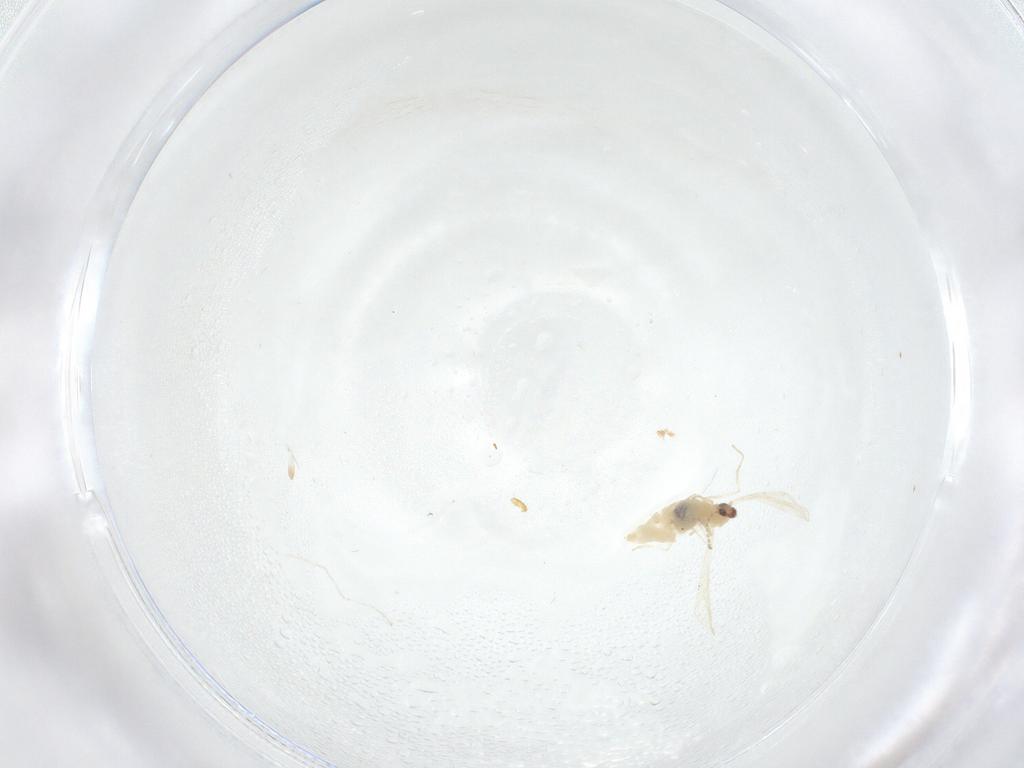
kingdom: Animalia
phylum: Arthropoda
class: Insecta
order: Diptera
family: Cecidomyiidae
